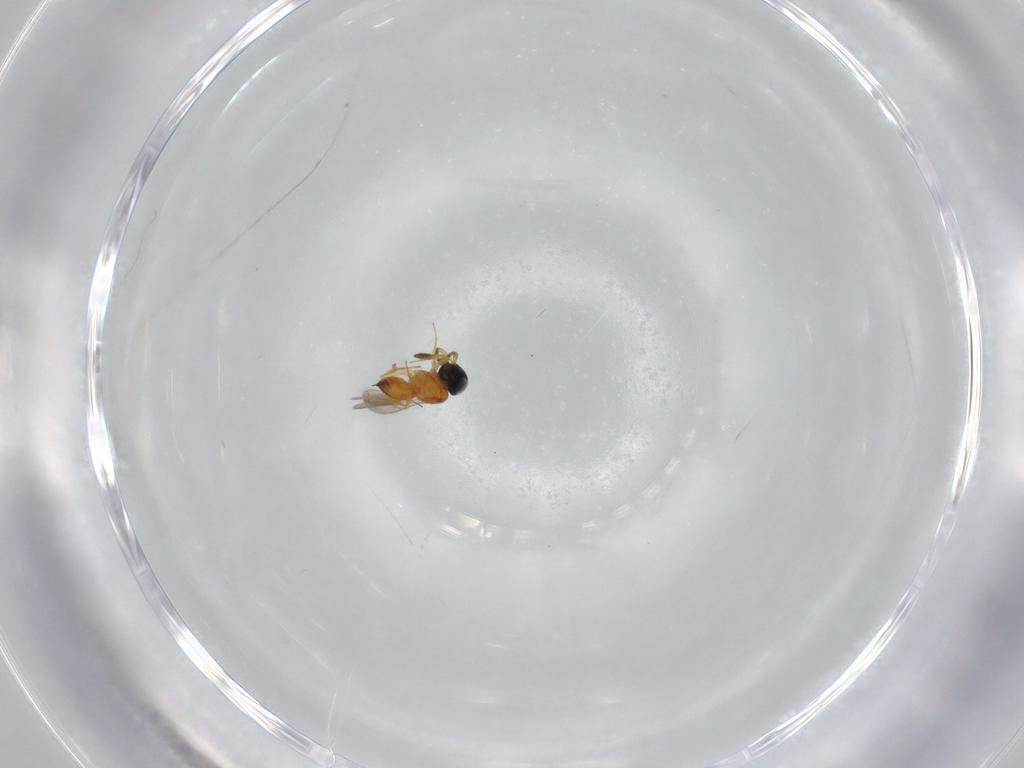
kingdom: Animalia
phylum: Arthropoda
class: Insecta
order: Hymenoptera
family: Scelionidae
